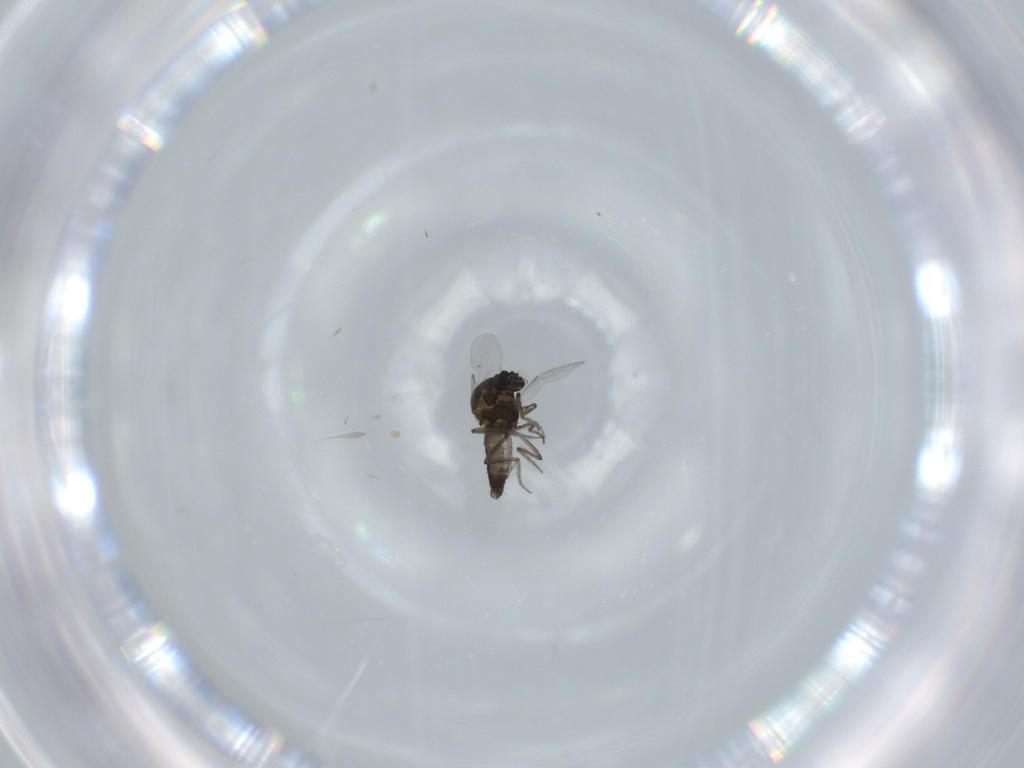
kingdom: Animalia
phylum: Arthropoda
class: Insecta
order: Diptera
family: Ceratopogonidae
